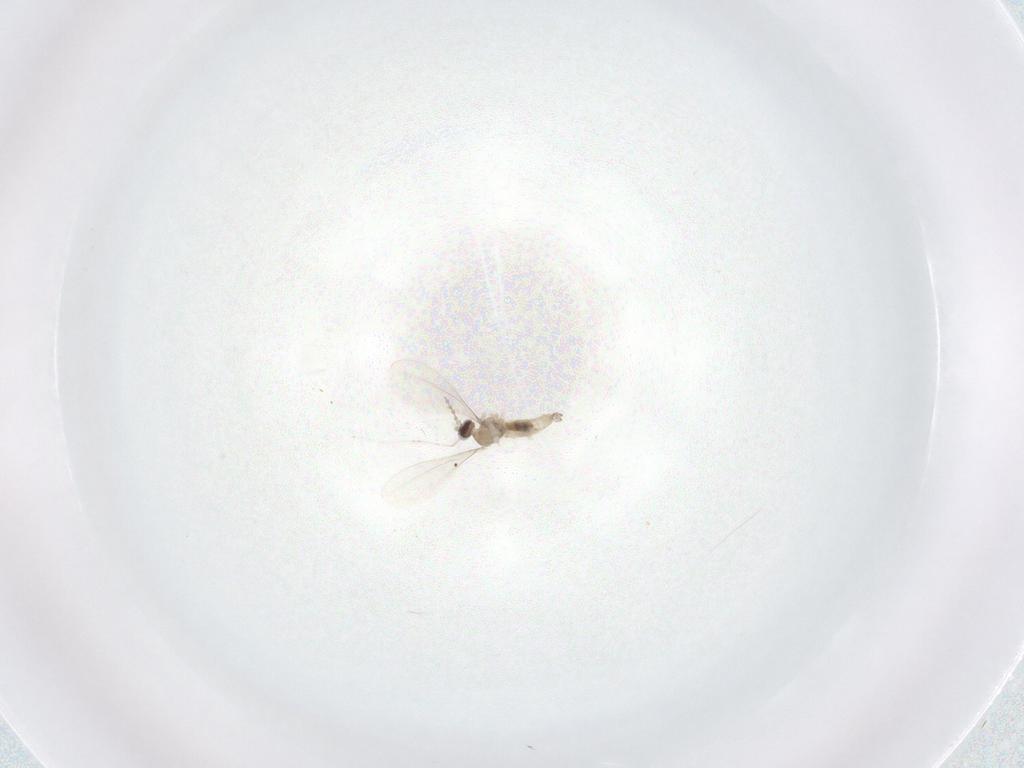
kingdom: Animalia
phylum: Arthropoda
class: Insecta
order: Diptera
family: Cecidomyiidae
